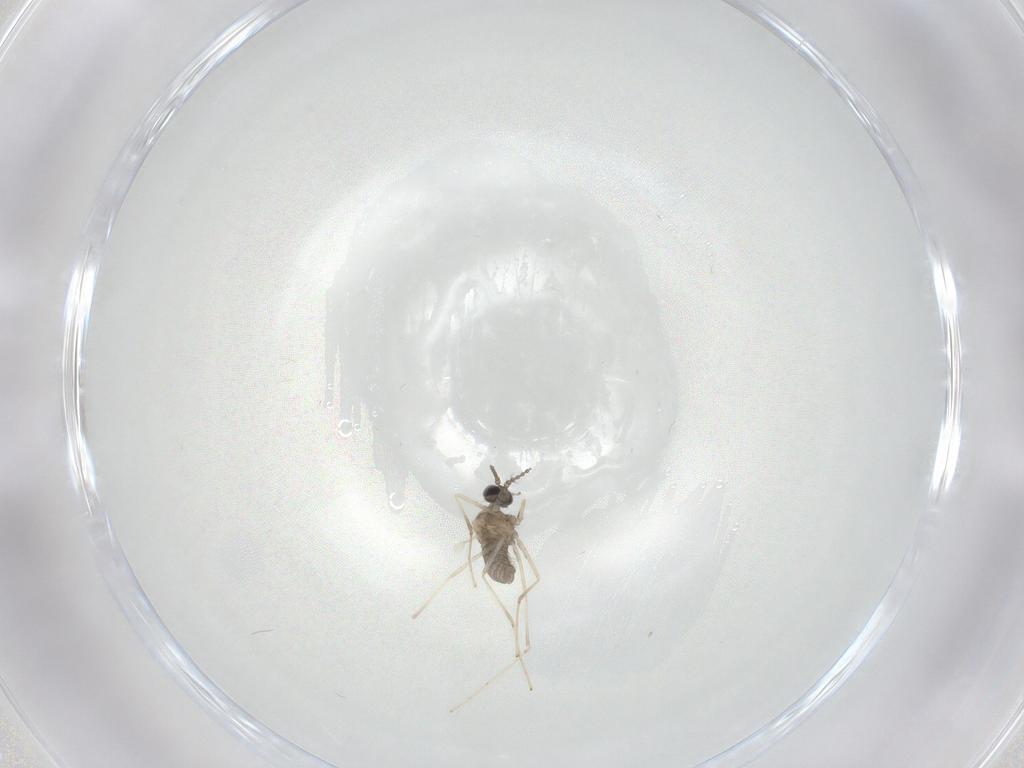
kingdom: Animalia
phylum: Arthropoda
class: Insecta
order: Diptera
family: Cecidomyiidae
